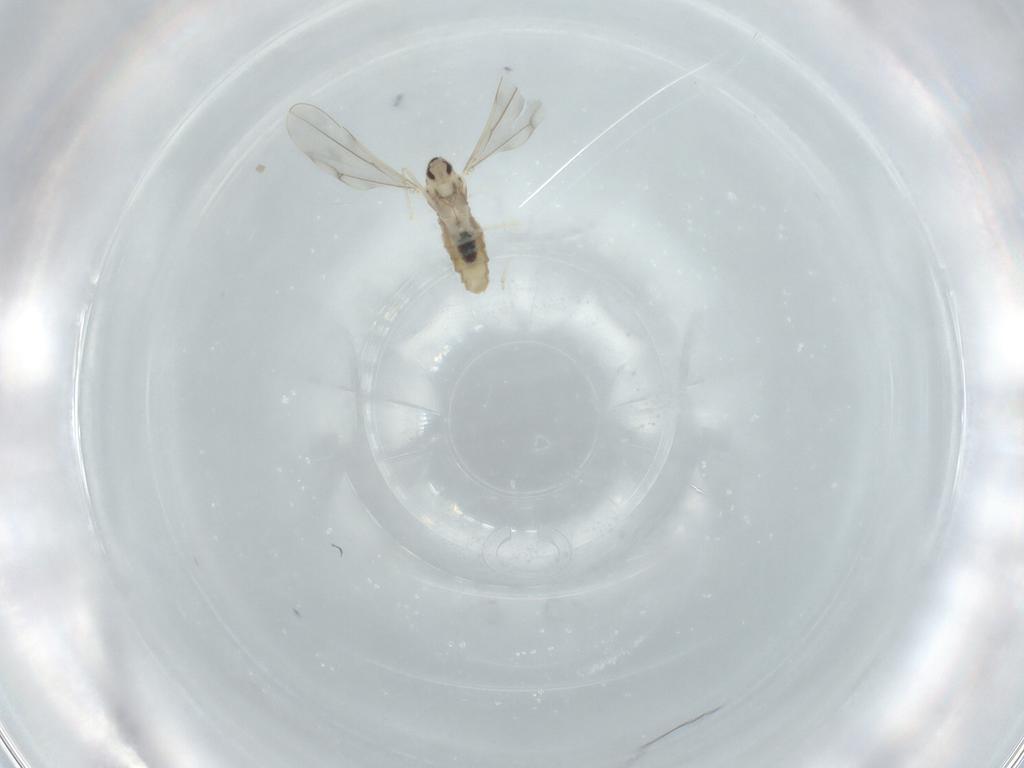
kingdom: Animalia
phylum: Arthropoda
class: Insecta
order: Diptera
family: Cecidomyiidae
